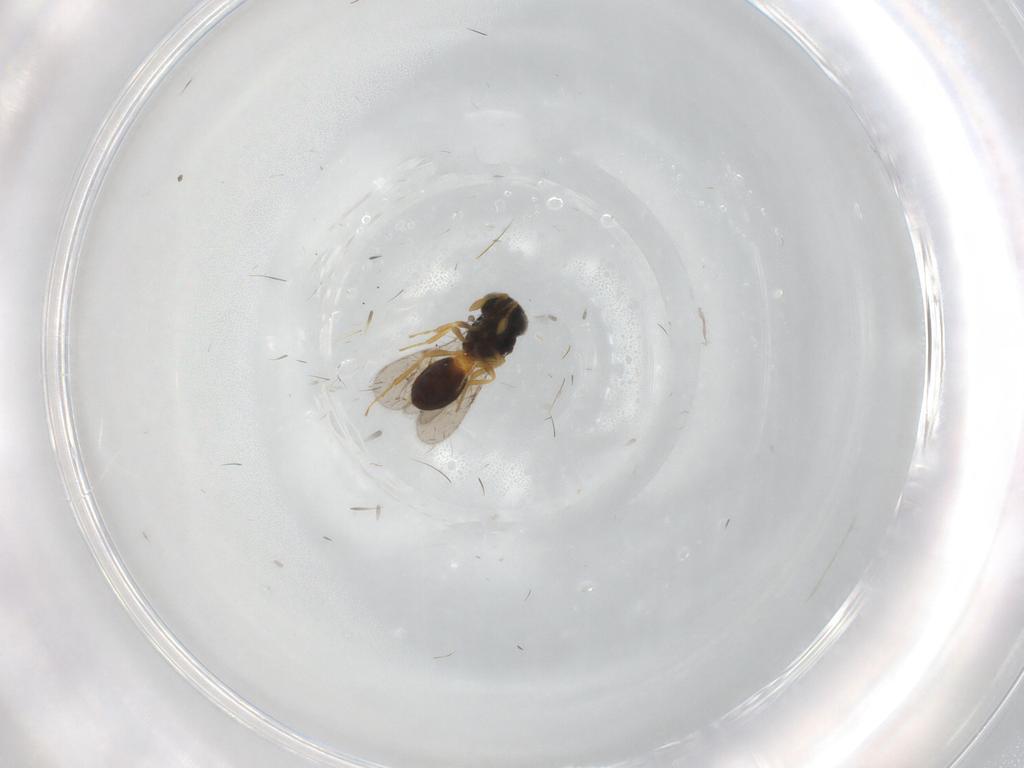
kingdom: Animalia
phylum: Arthropoda
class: Insecta
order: Hymenoptera
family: Scelionidae
